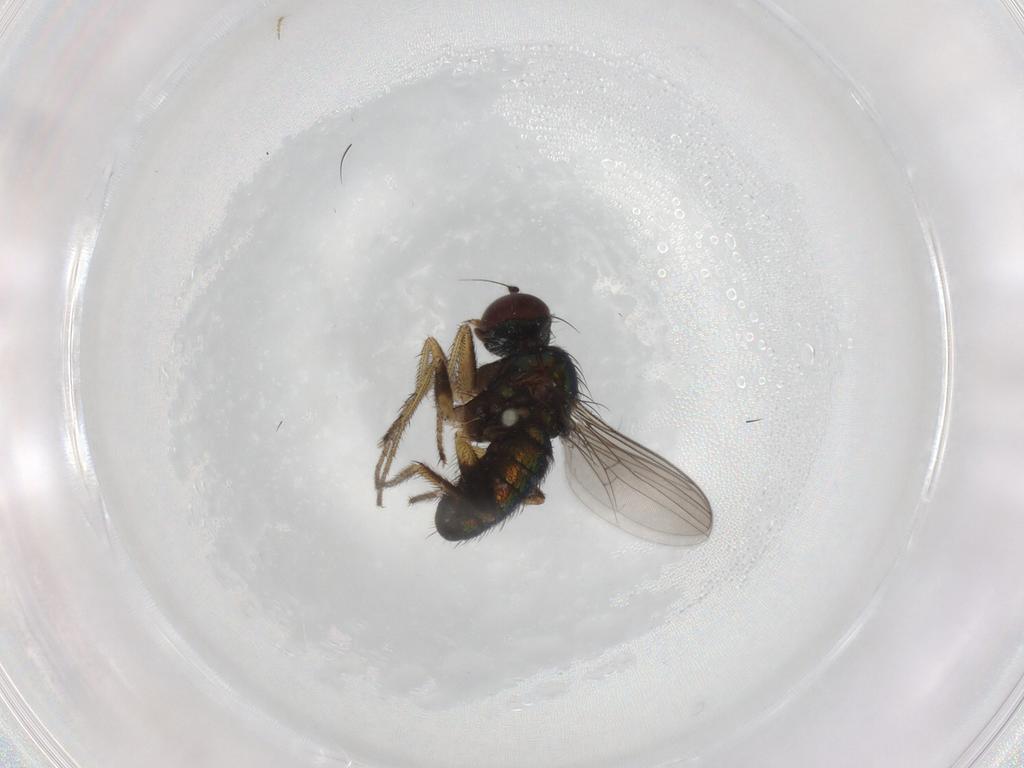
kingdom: Animalia
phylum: Arthropoda
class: Insecta
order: Diptera
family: Dolichopodidae
